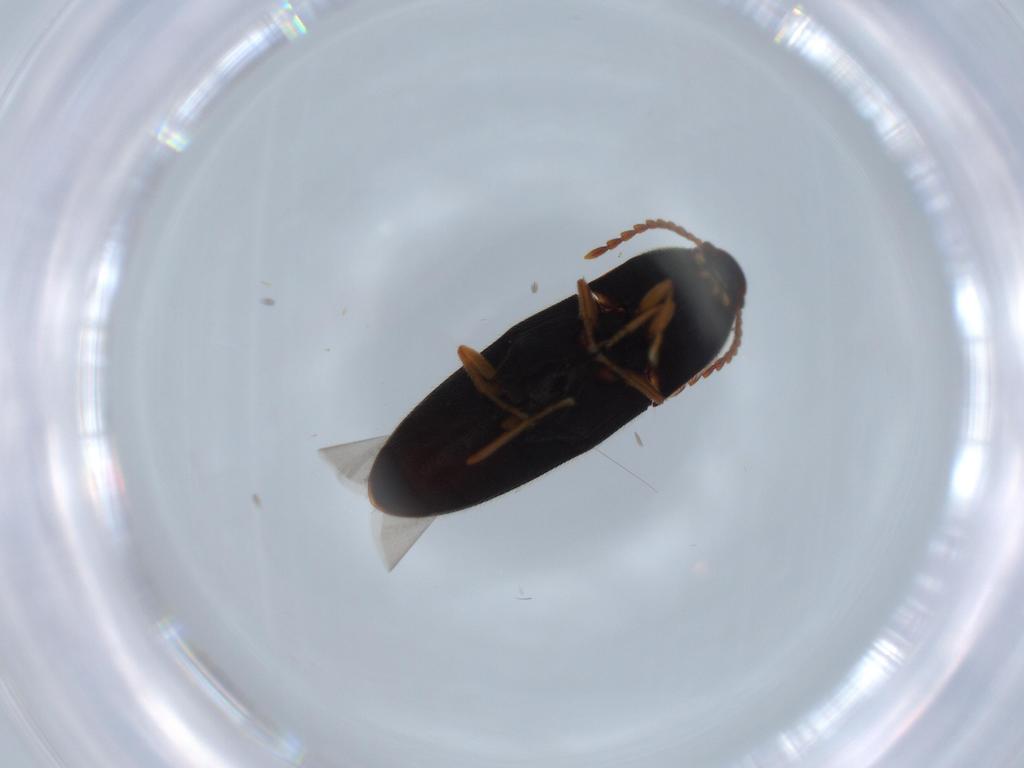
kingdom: Animalia
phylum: Arthropoda
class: Insecta
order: Coleoptera
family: Elateridae
